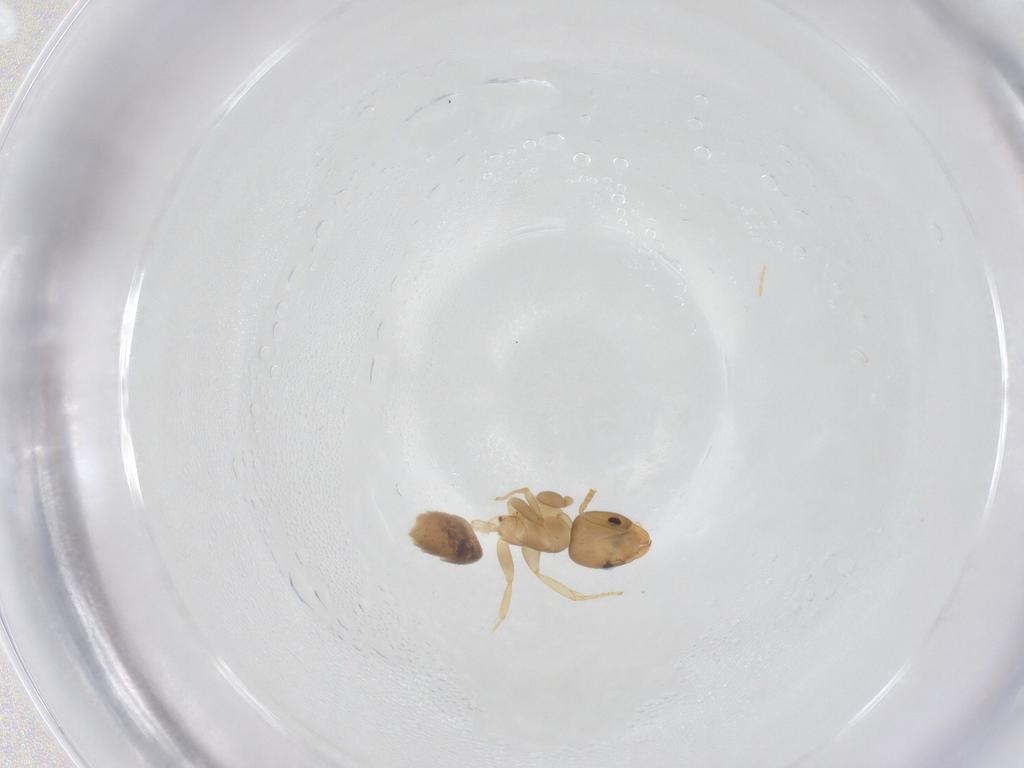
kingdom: Animalia
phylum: Arthropoda
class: Insecta
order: Hymenoptera
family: Formicidae
